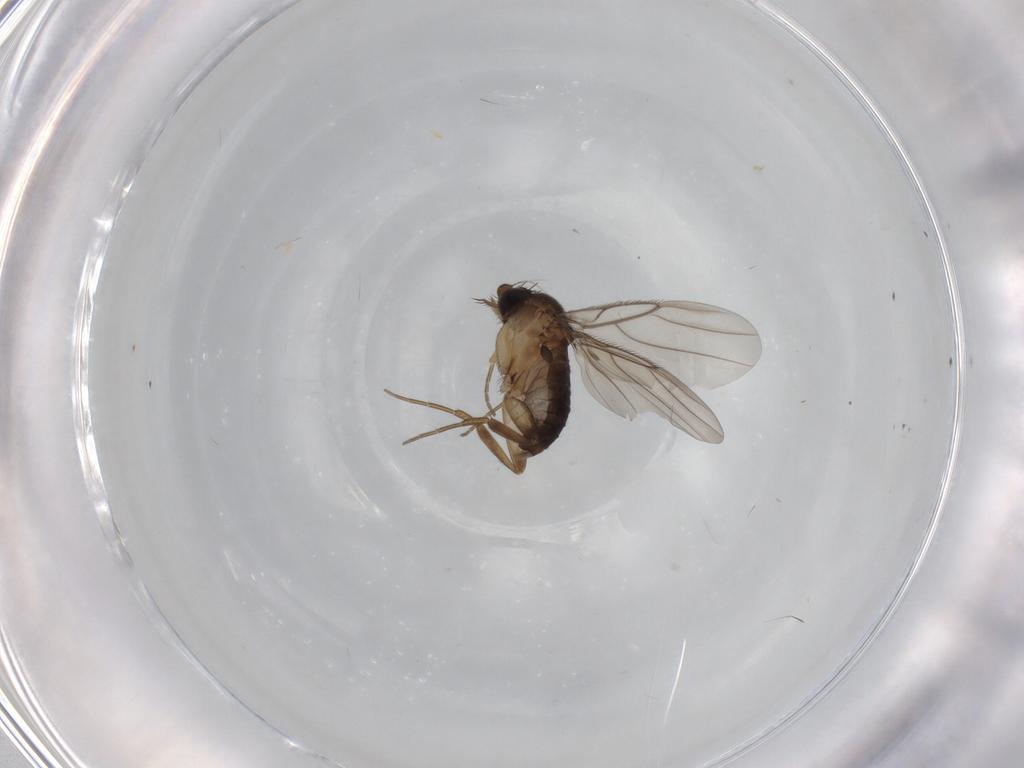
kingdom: Animalia
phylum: Arthropoda
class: Insecta
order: Diptera
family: Phoridae
